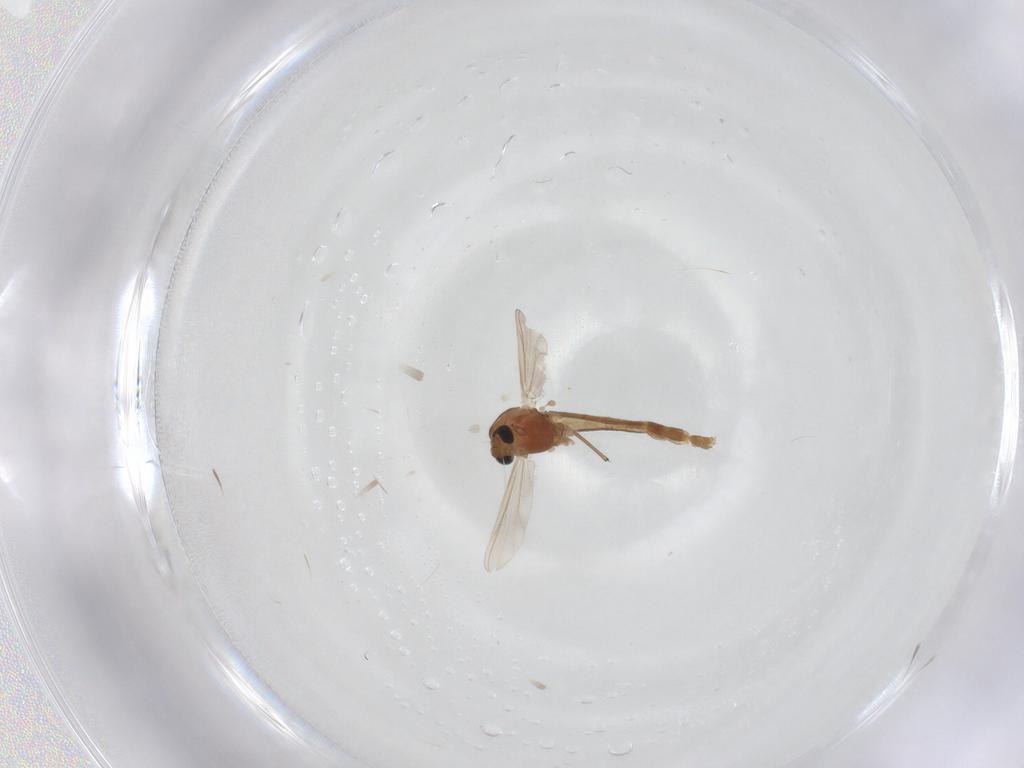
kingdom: Animalia
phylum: Arthropoda
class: Insecta
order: Diptera
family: Chironomidae
